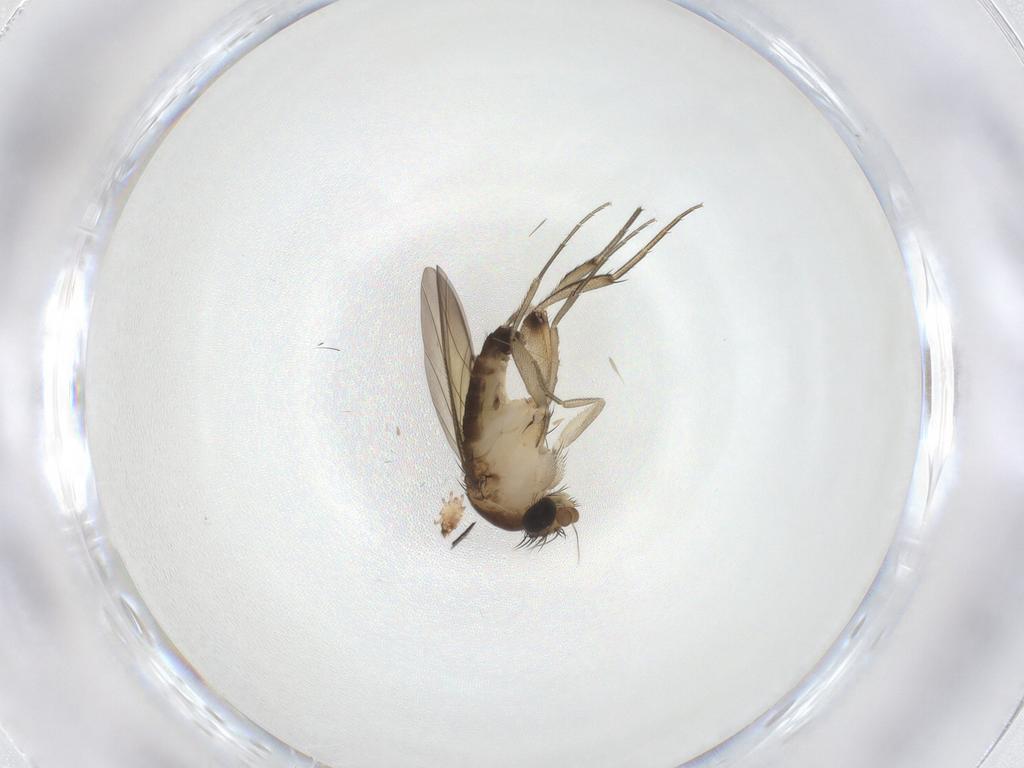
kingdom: Animalia
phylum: Arthropoda
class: Insecta
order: Diptera
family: Phoridae
